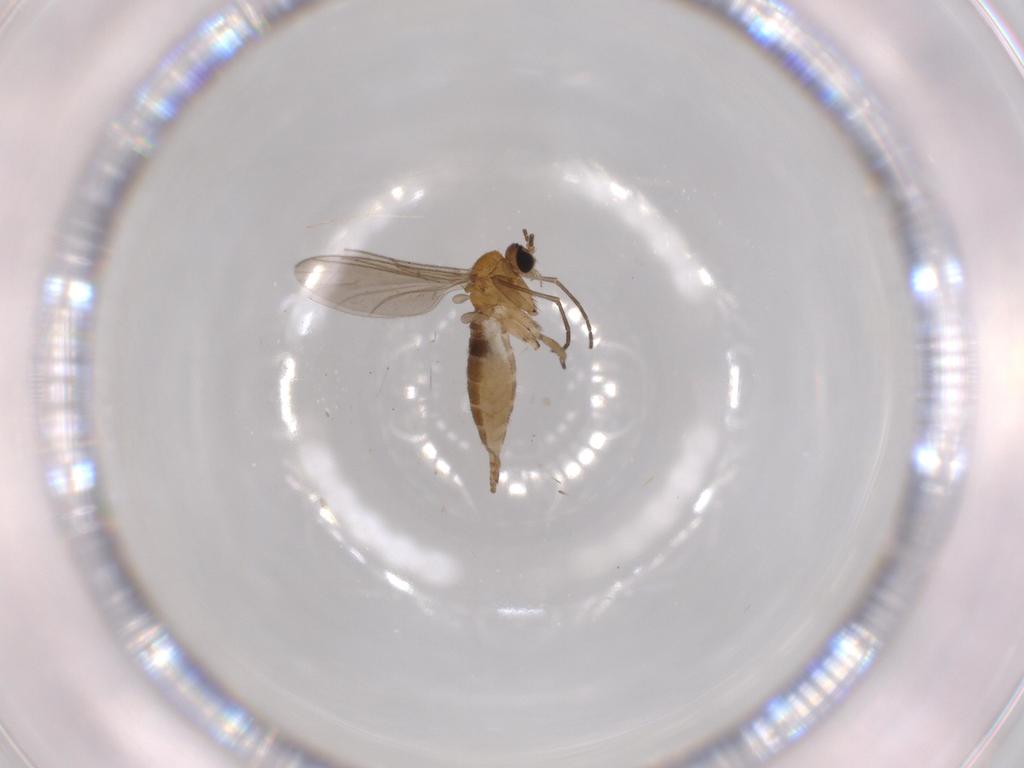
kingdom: Animalia
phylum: Arthropoda
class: Insecta
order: Diptera
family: Sciaridae
